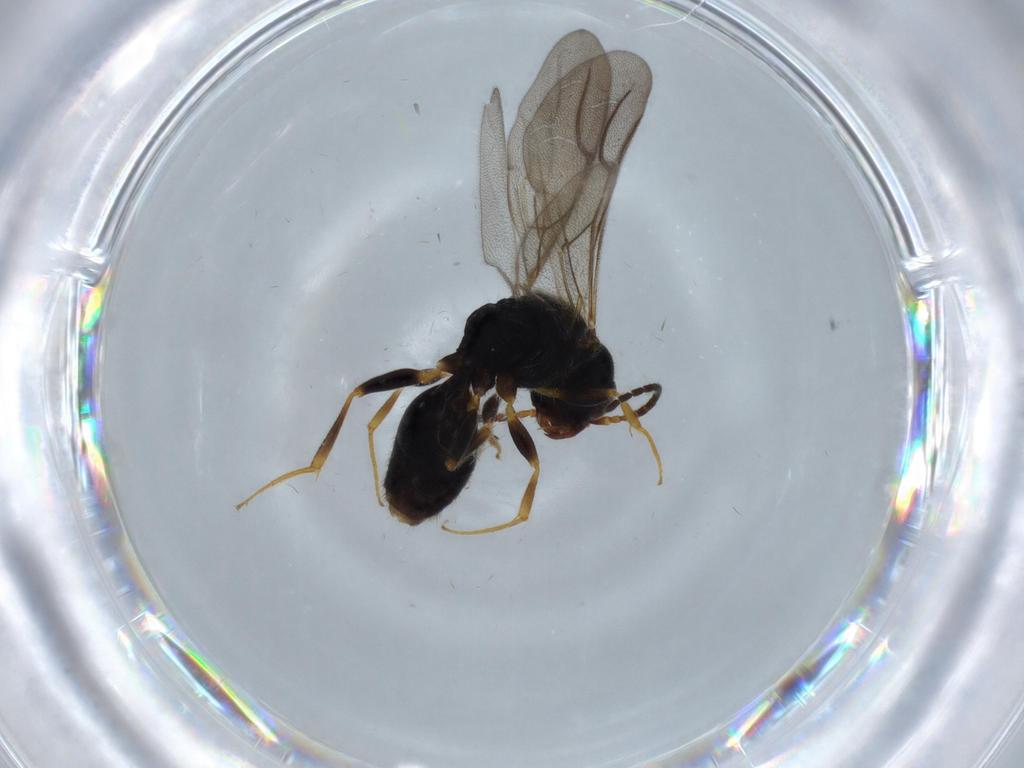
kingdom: Animalia
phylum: Arthropoda
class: Insecta
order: Hymenoptera
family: Bethylidae
